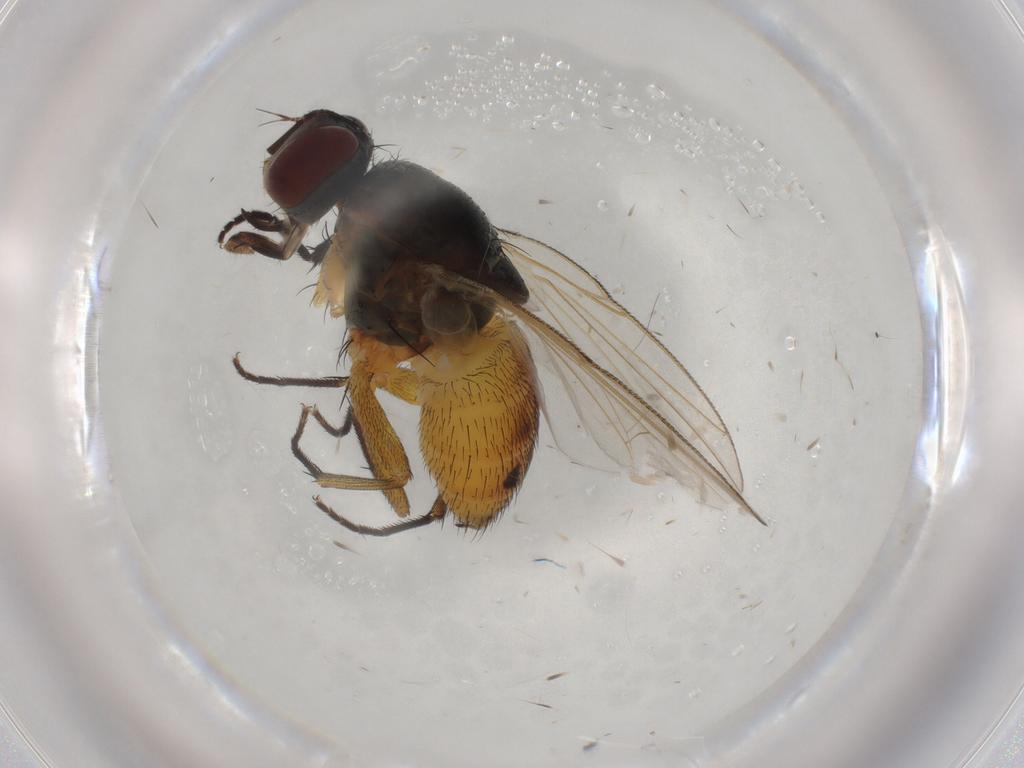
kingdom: Animalia
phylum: Arthropoda
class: Insecta
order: Diptera
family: Muscidae
